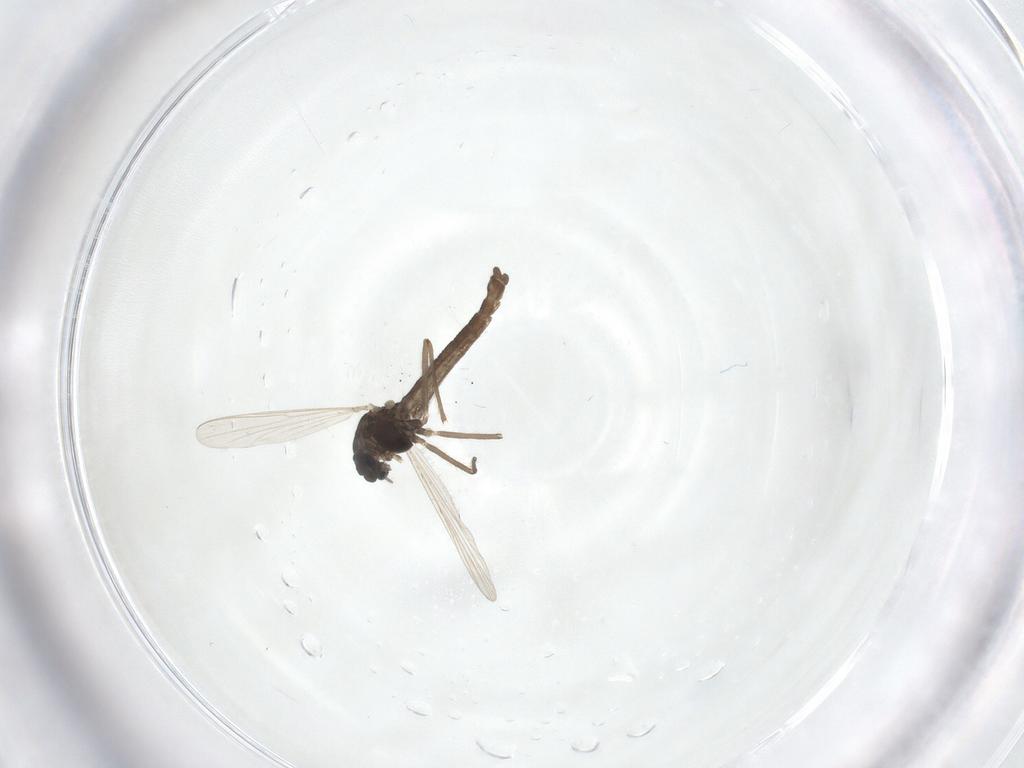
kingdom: Animalia
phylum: Arthropoda
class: Insecta
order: Diptera
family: Chironomidae
